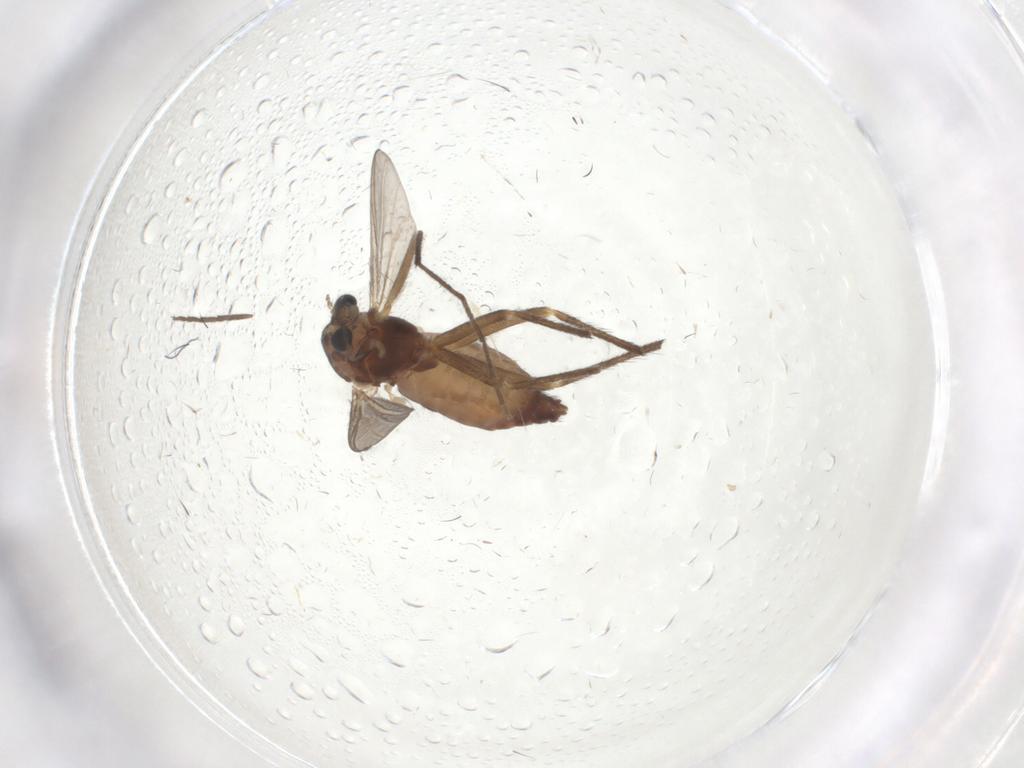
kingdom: Animalia
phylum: Arthropoda
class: Insecta
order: Diptera
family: Chironomidae
